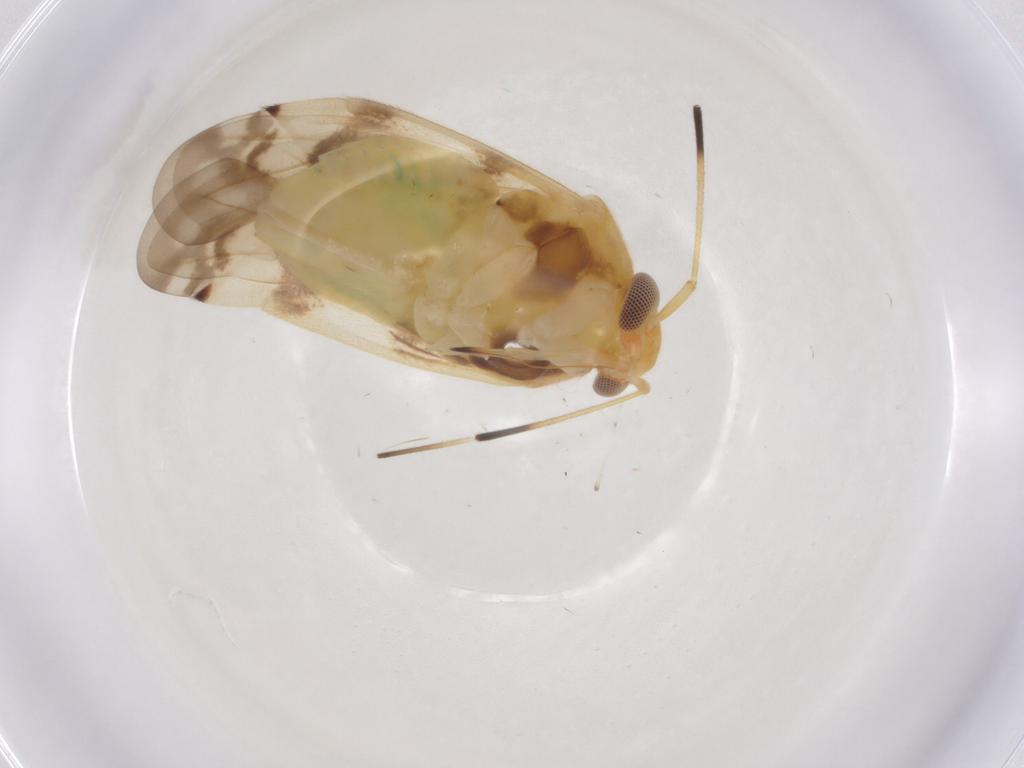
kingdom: Animalia
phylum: Arthropoda
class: Insecta
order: Hemiptera
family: Miridae
